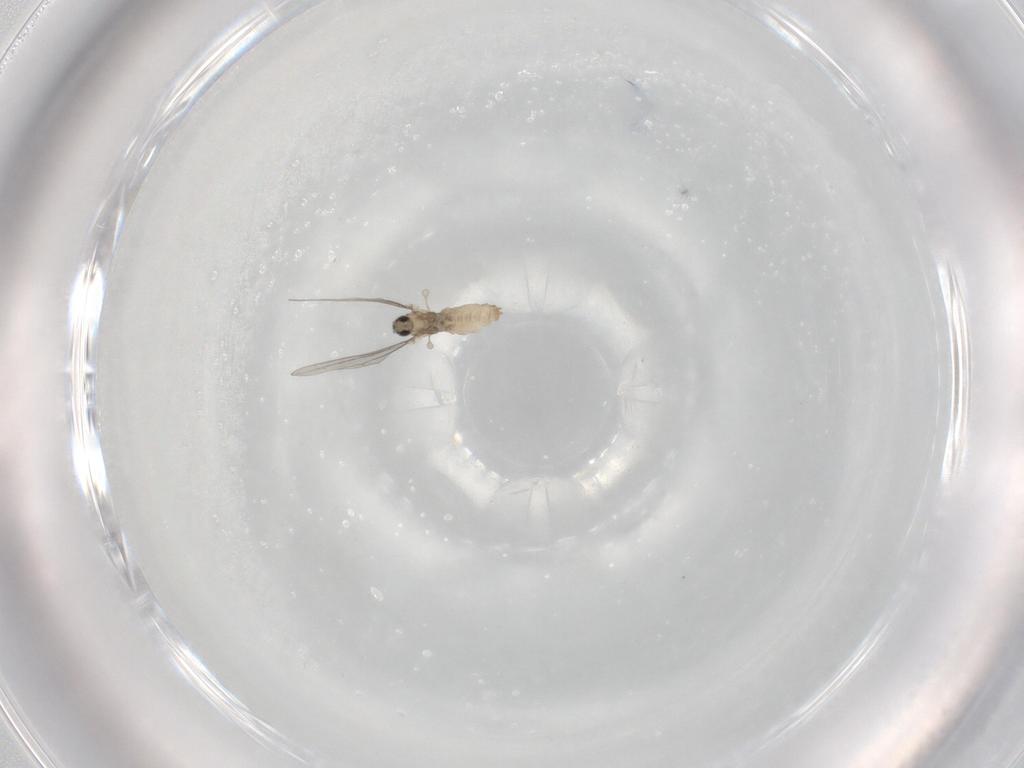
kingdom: Animalia
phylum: Arthropoda
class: Insecta
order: Diptera
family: Cecidomyiidae
